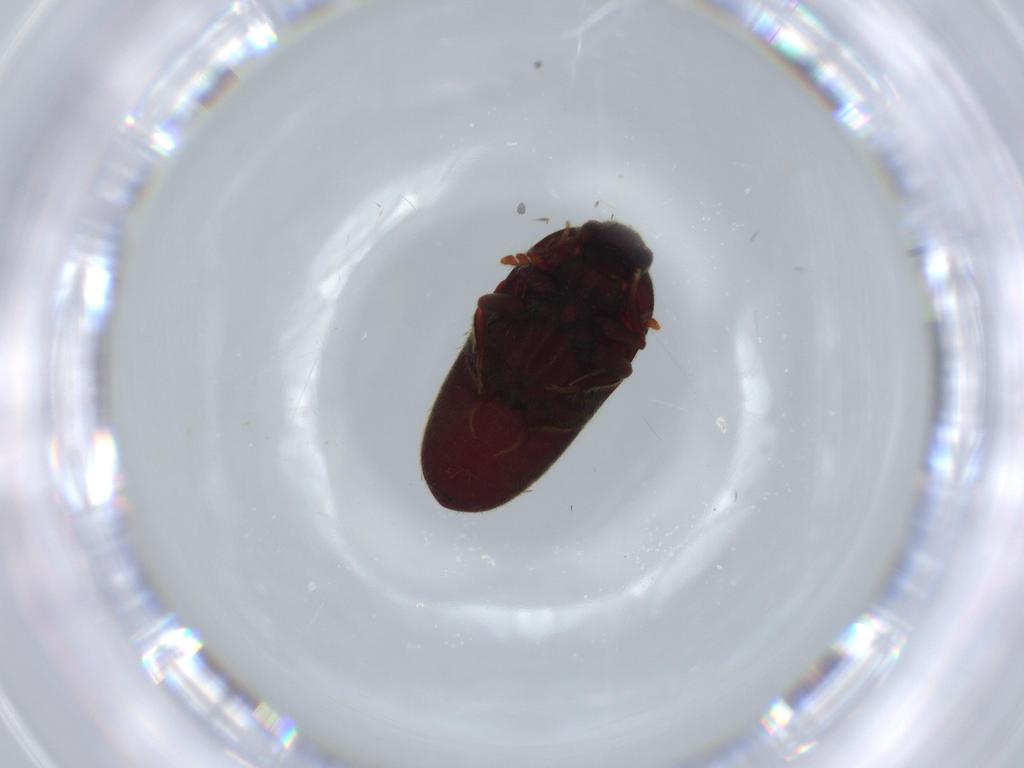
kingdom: Animalia
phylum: Arthropoda
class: Insecta
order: Coleoptera
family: Throscidae
